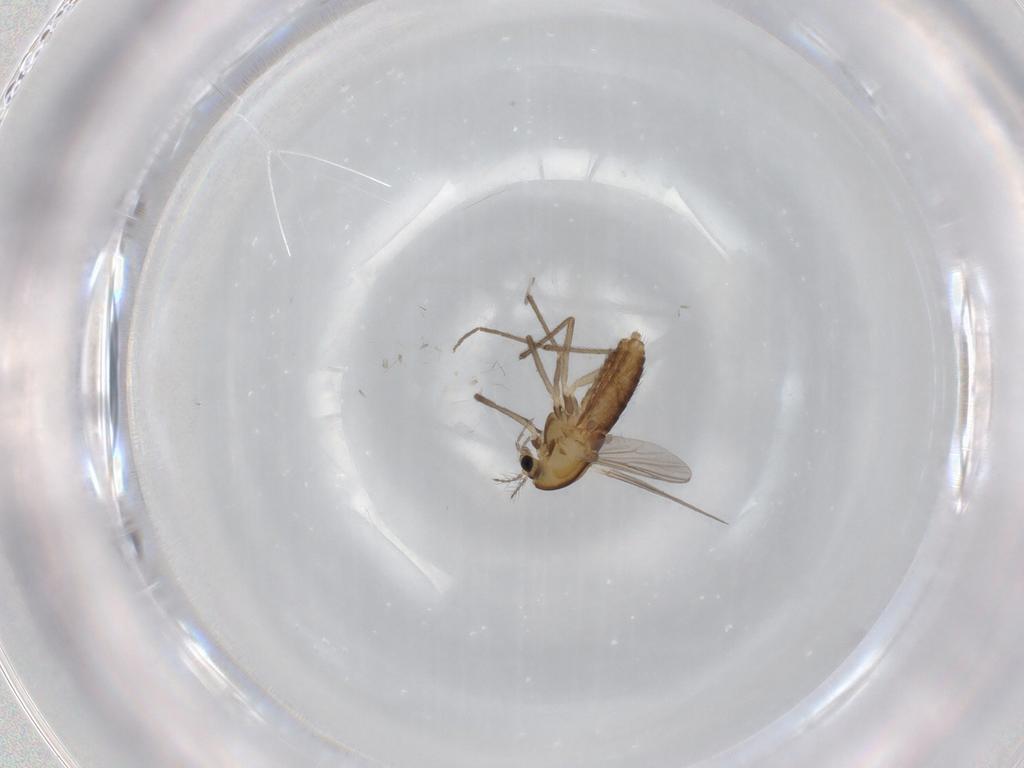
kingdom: Animalia
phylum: Arthropoda
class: Insecta
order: Diptera
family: Chironomidae
